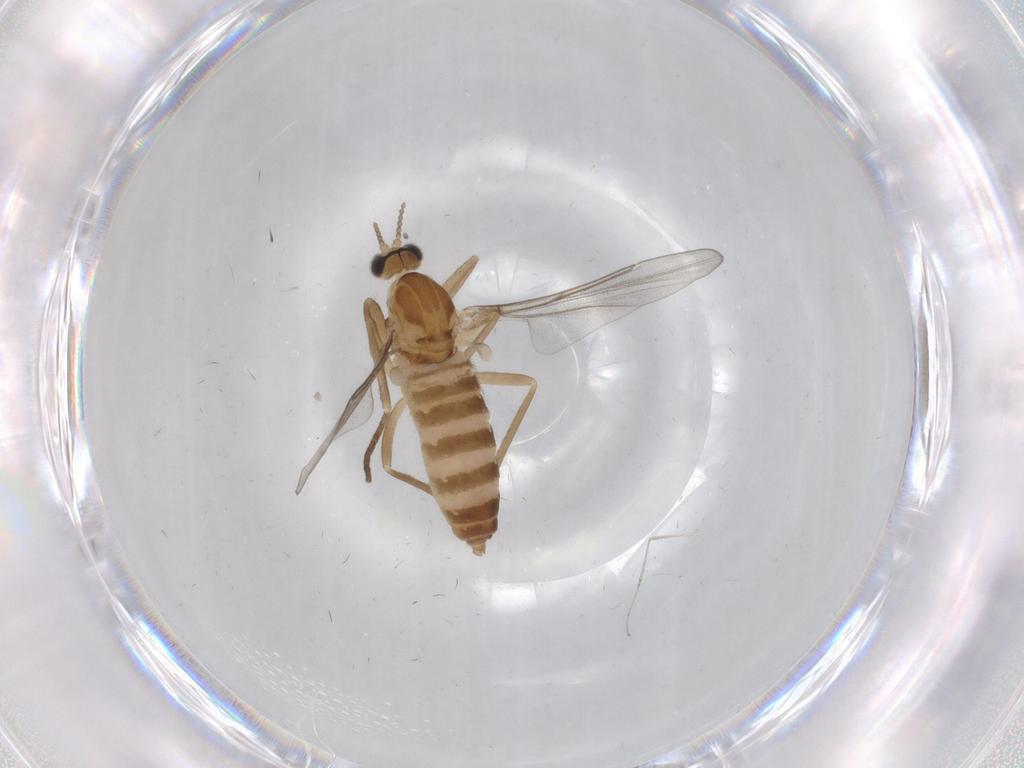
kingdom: Animalia
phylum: Arthropoda
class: Insecta
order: Diptera
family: Cecidomyiidae
